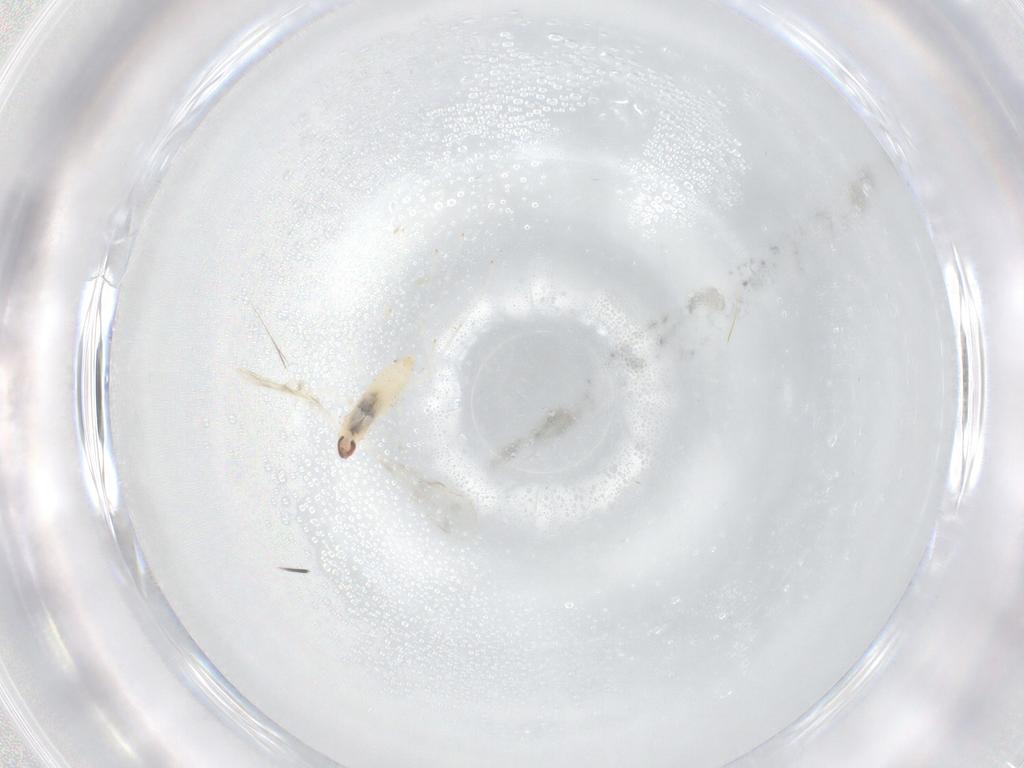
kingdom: Animalia
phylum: Arthropoda
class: Insecta
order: Diptera
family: Cecidomyiidae
